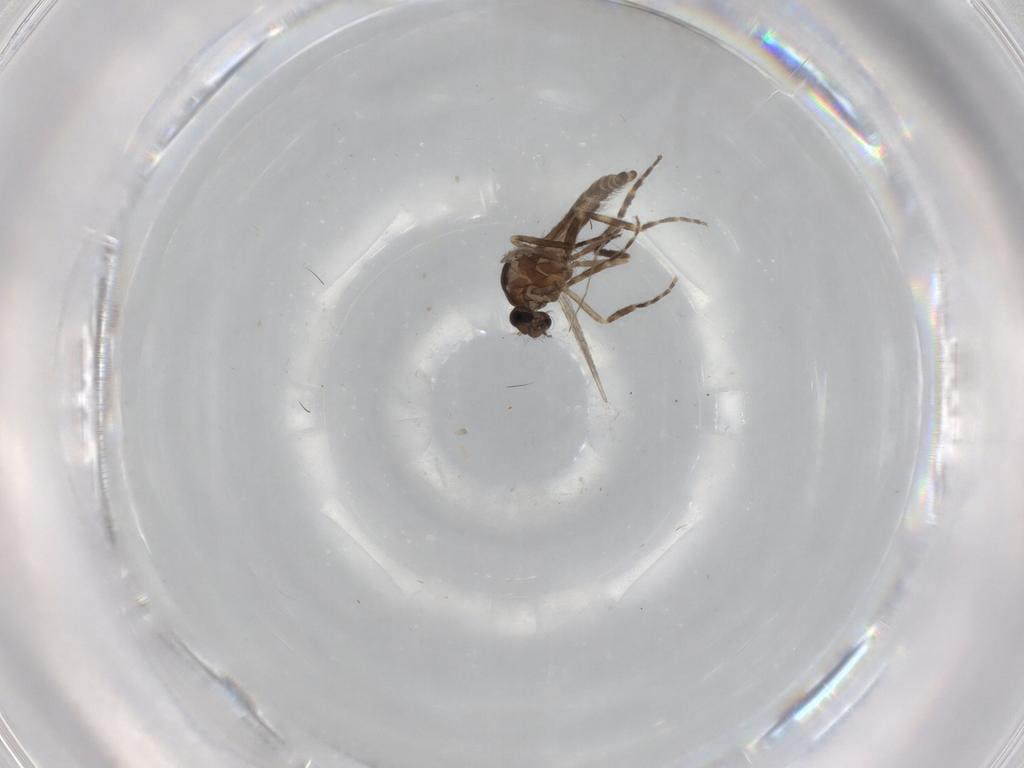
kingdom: Animalia
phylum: Arthropoda
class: Insecta
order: Diptera
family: Ceratopogonidae
